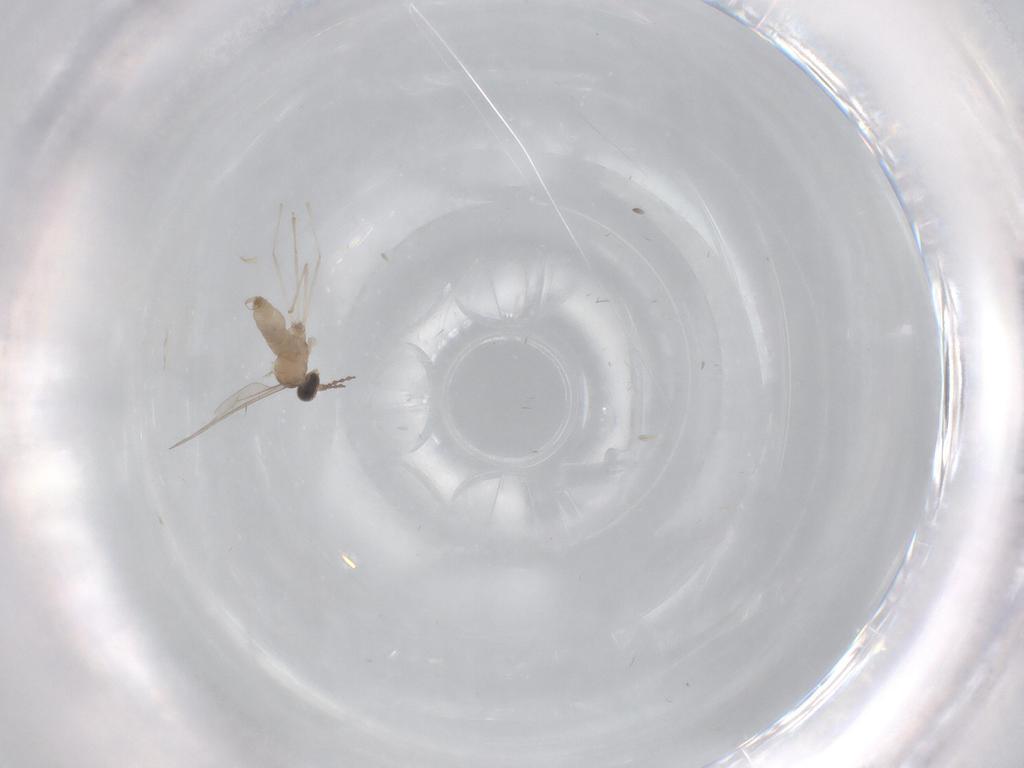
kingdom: Animalia
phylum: Arthropoda
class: Insecta
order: Diptera
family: Cecidomyiidae
